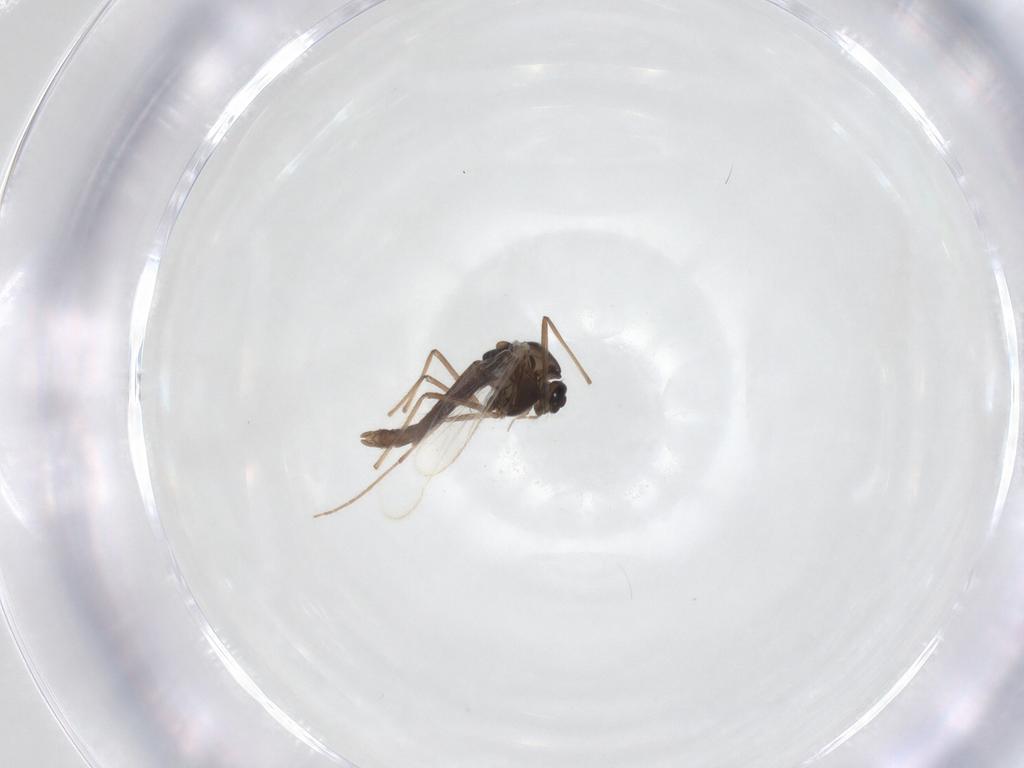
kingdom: Animalia
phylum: Arthropoda
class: Insecta
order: Diptera
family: Chironomidae
